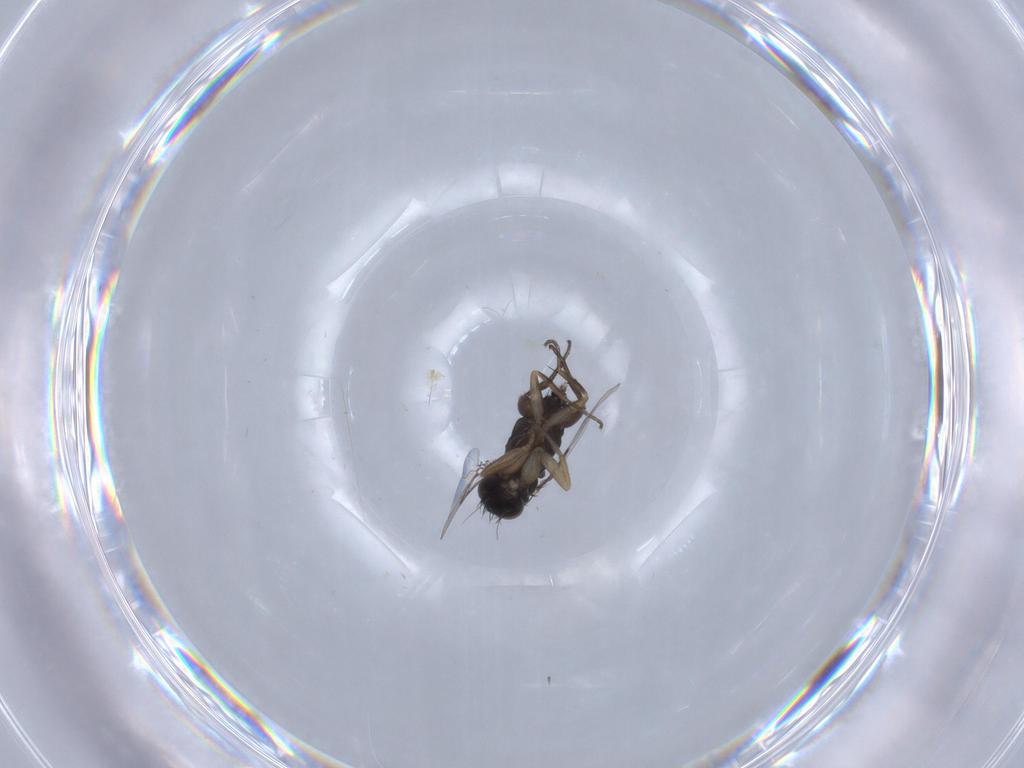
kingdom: Animalia
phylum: Arthropoda
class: Insecta
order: Diptera
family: Phoridae
